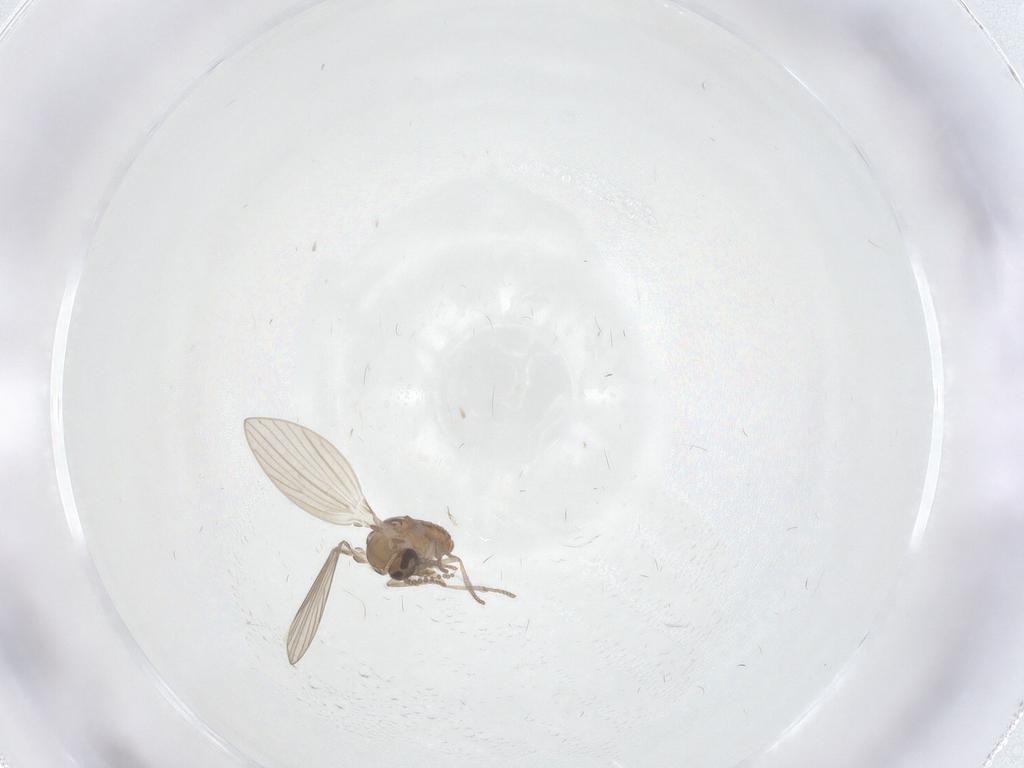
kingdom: Animalia
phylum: Arthropoda
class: Insecta
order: Diptera
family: Psychodidae
